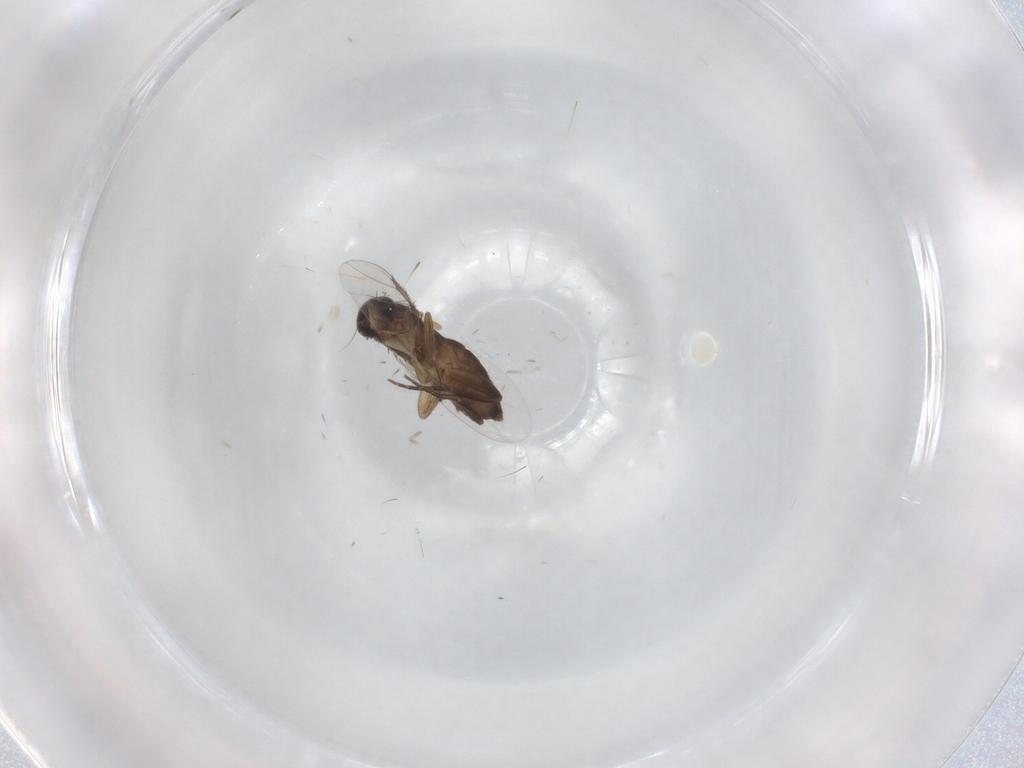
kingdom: Animalia
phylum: Arthropoda
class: Insecta
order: Diptera
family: Phoridae
